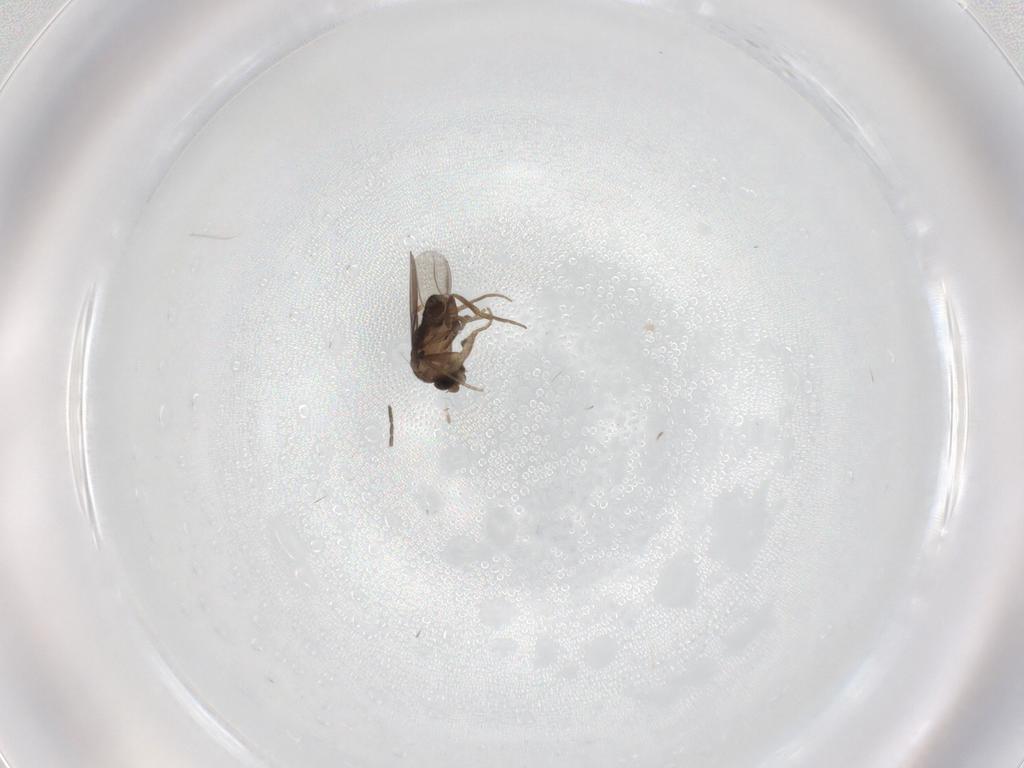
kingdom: Animalia
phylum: Arthropoda
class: Insecta
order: Diptera
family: Phoridae
